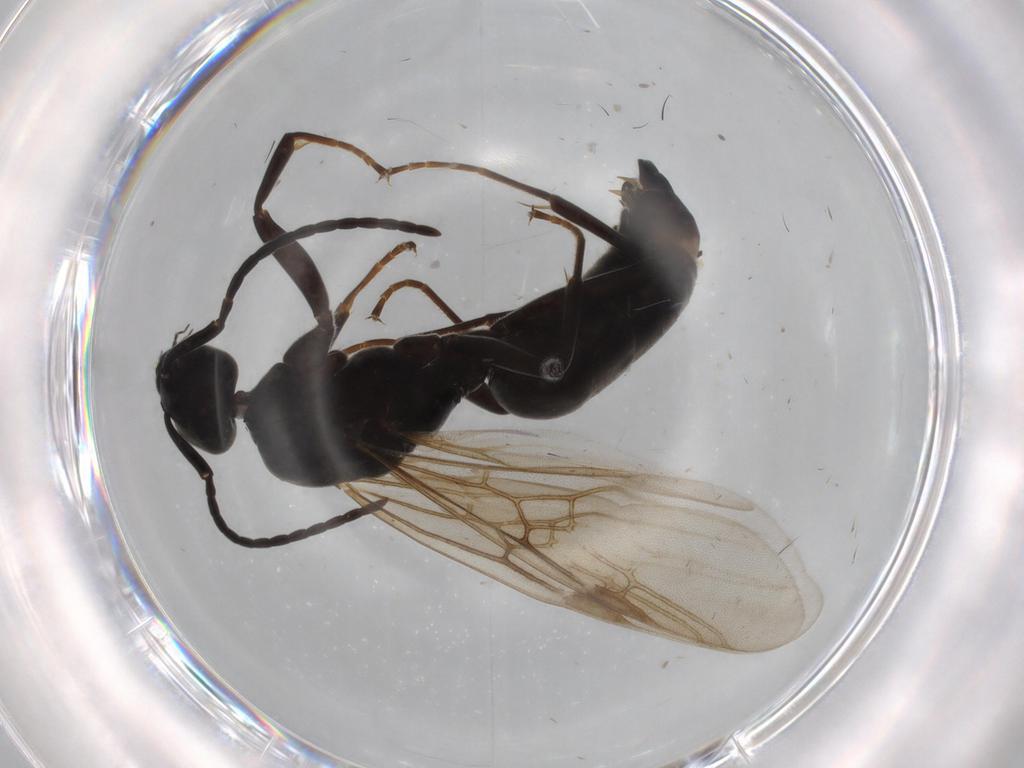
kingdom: Animalia
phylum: Arthropoda
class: Insecta
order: Hymenoptera
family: Formicidae
